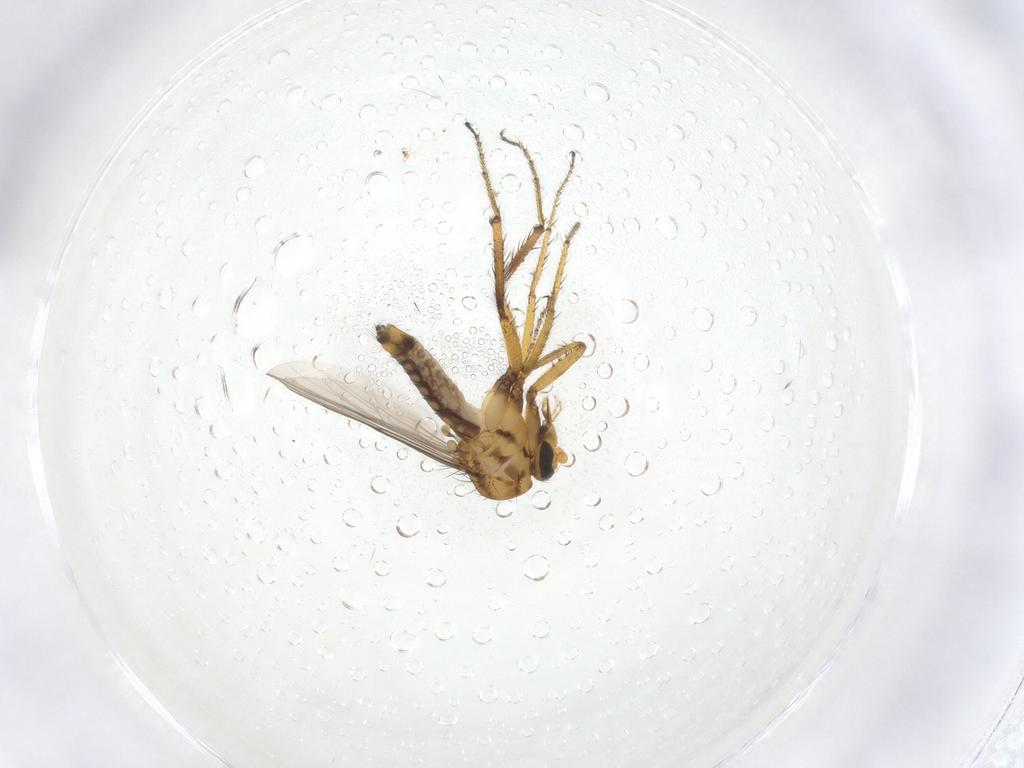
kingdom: Animalia
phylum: Arthropoda
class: Insecta
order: Diptera
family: Ceratopogonidae
